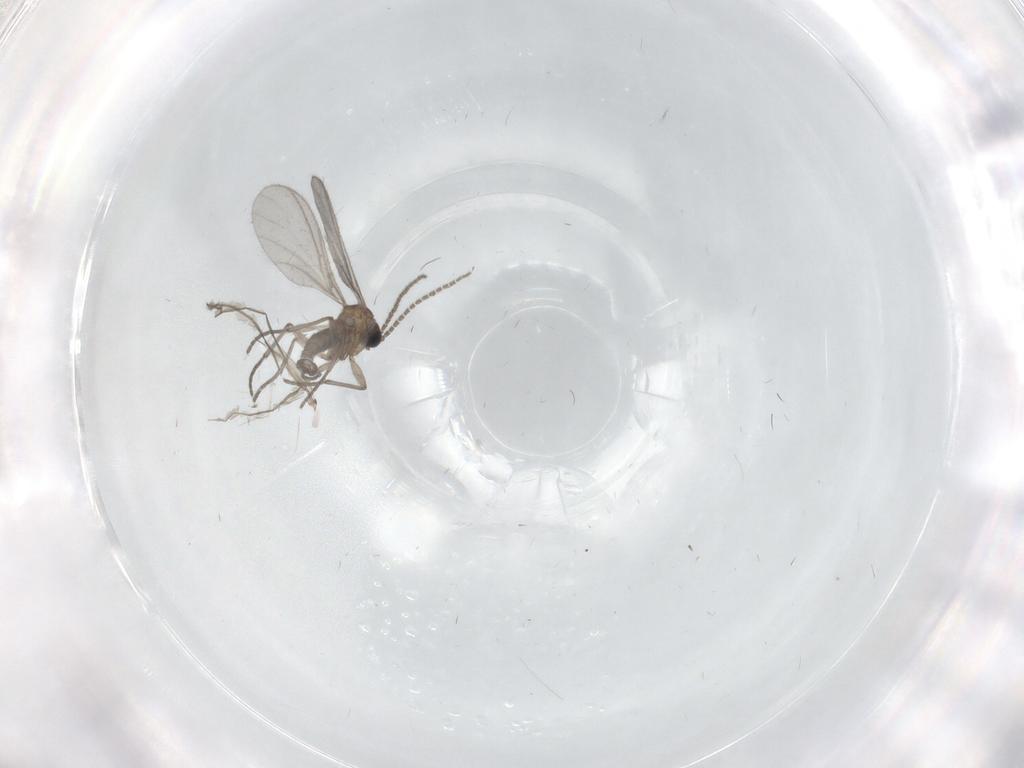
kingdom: Animalia
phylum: Arthropoda
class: Insecta
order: Diptera
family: Sciaridae
